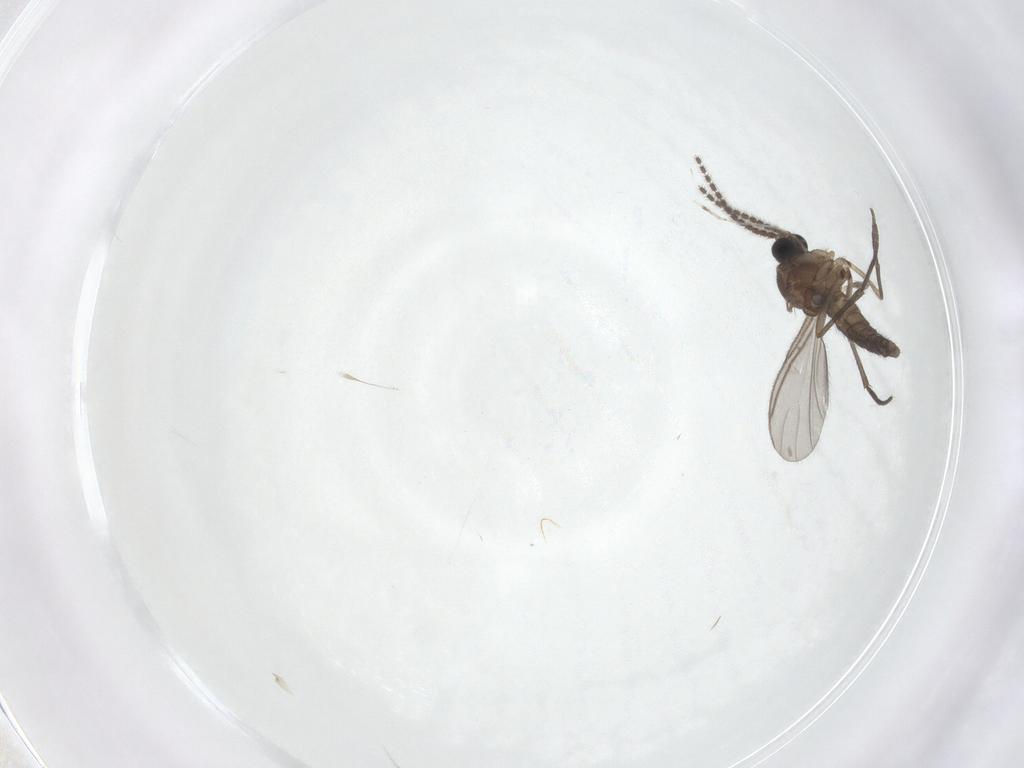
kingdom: Animalia
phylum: Arthropoda
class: Insecta
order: Diptera
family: Sciaridae
